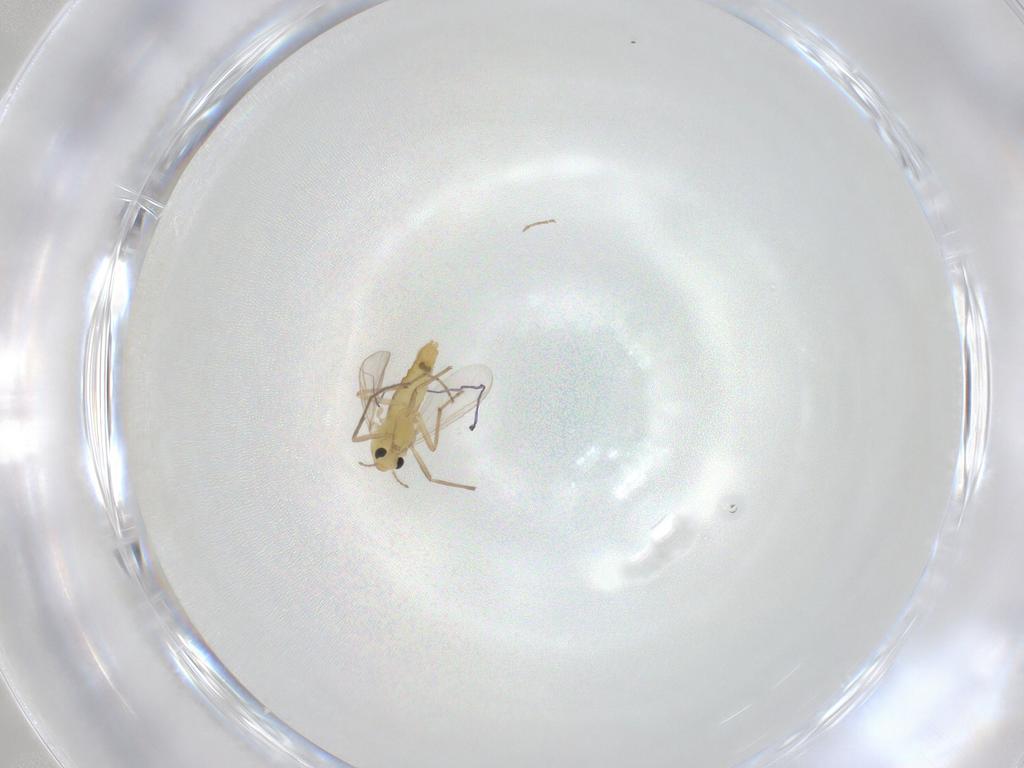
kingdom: Animalia
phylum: Arthropoda
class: Insecta
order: Diptera
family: Chironomidae
